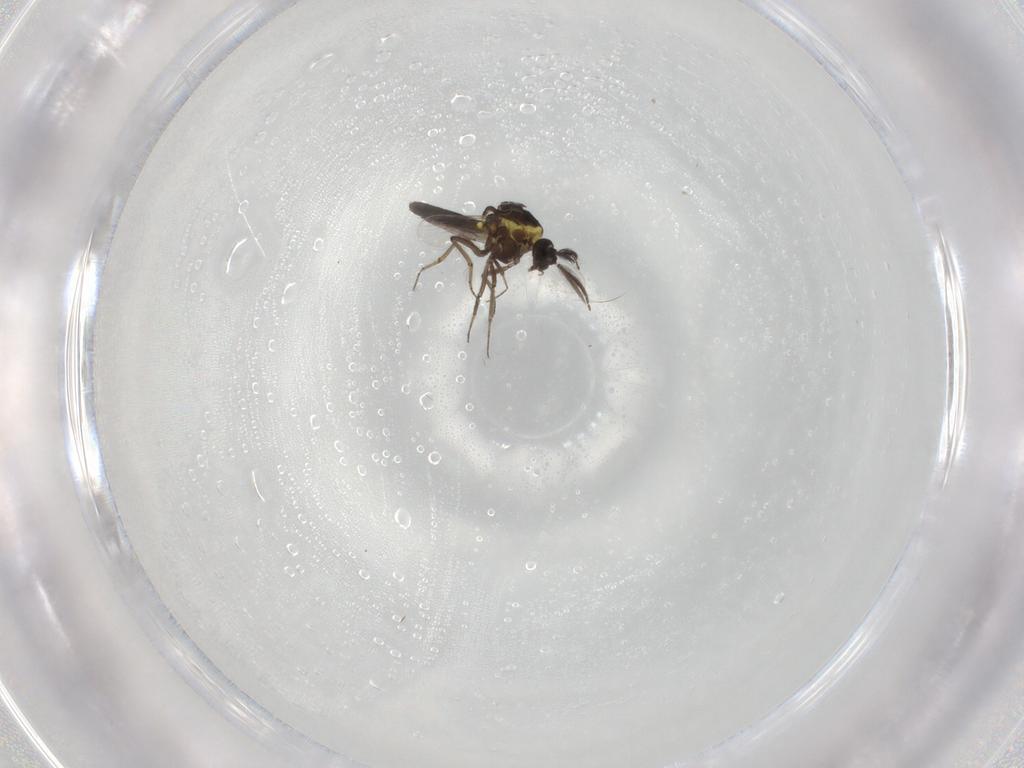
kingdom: Animalia
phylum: Arthropoda
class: Insecta
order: Diptera
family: Ceratopogonidae
